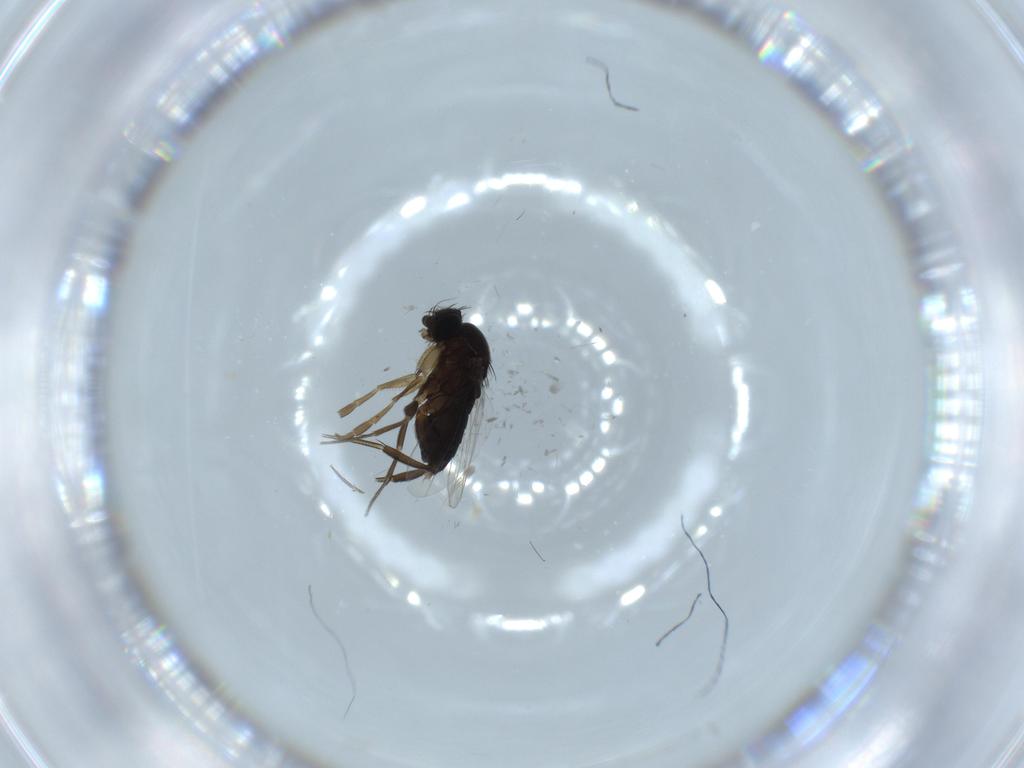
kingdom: Animalia
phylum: Arthropoda
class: Insecta
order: Diptera
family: Phoridae
